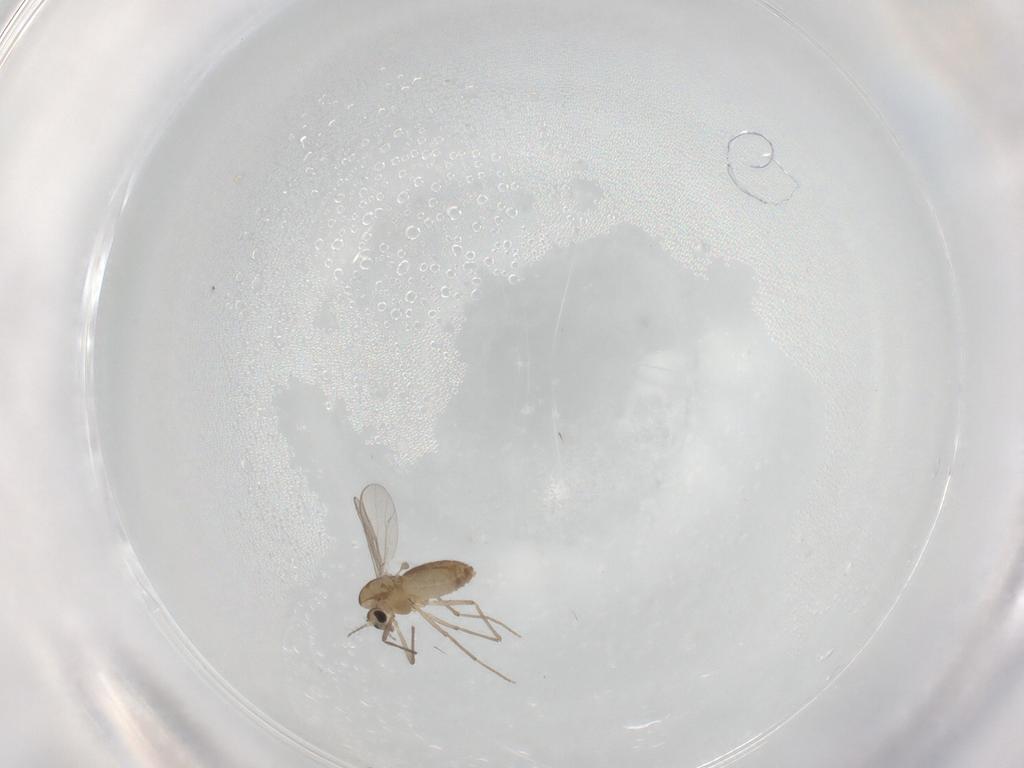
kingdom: Animalia
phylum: Arthropoda
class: Insecta
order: Diptera
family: Chironomidae
